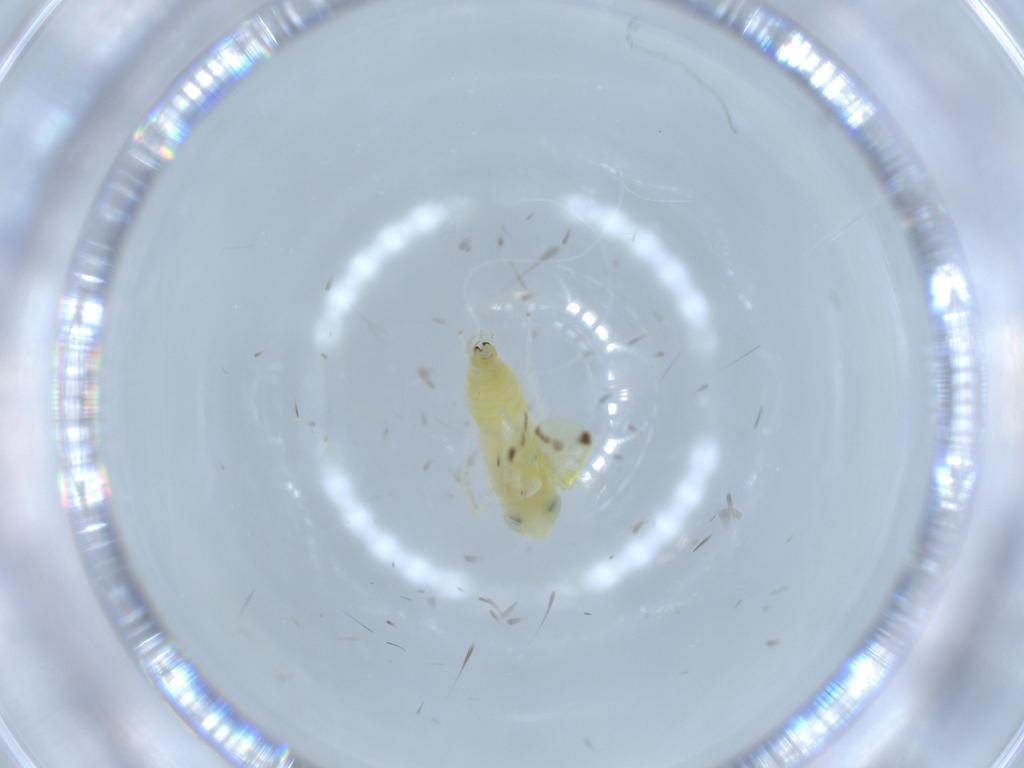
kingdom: Animalia
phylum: Arthropoda
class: Insecta
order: Hemiptera
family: Cicadellidae
